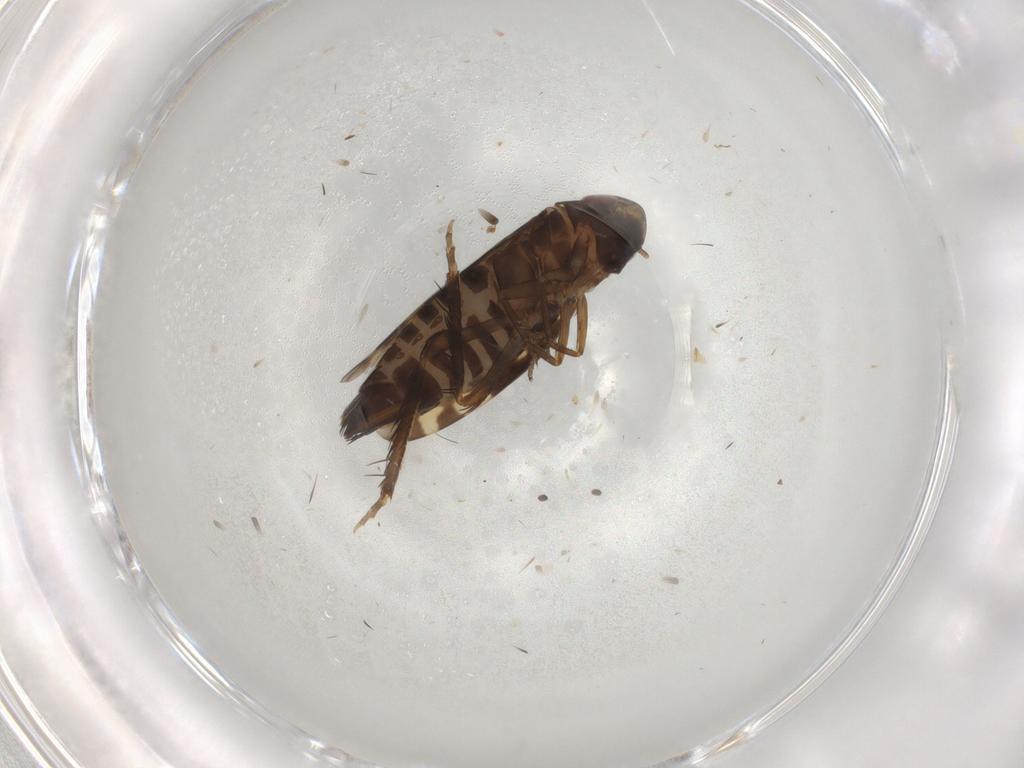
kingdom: Animalia
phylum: Arthropoda
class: Insecta
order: Hemiptera
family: Cicadellidae
